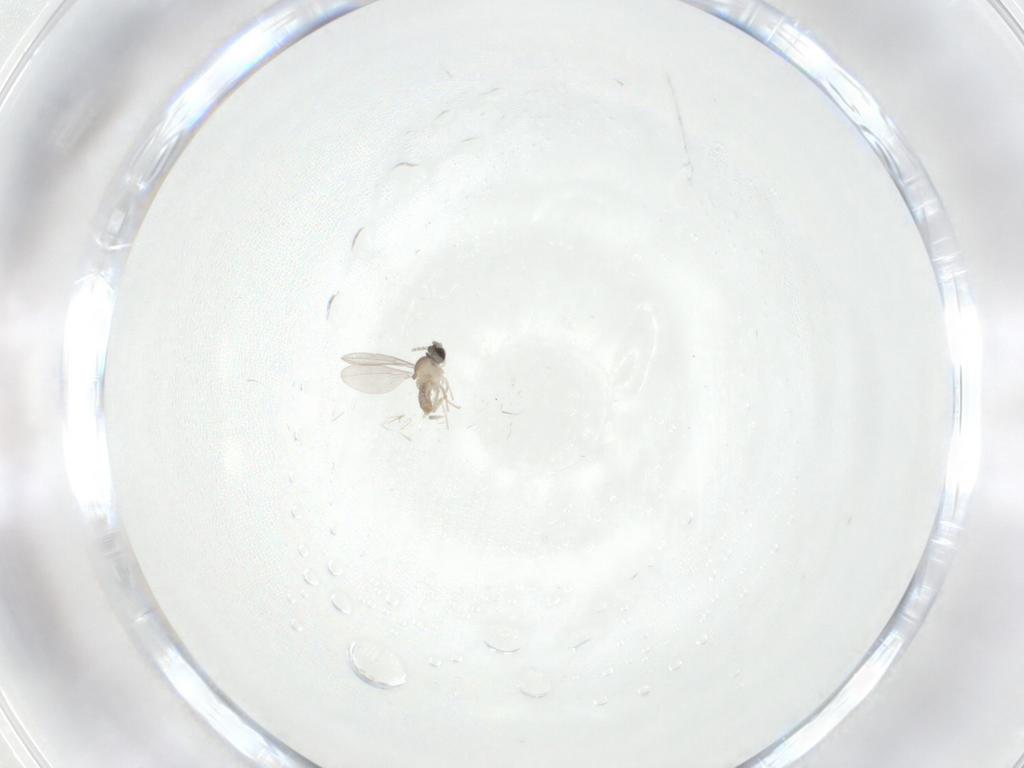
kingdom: Animalia
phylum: Arthropoda
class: Insecta
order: Diptera
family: Chironomidae
